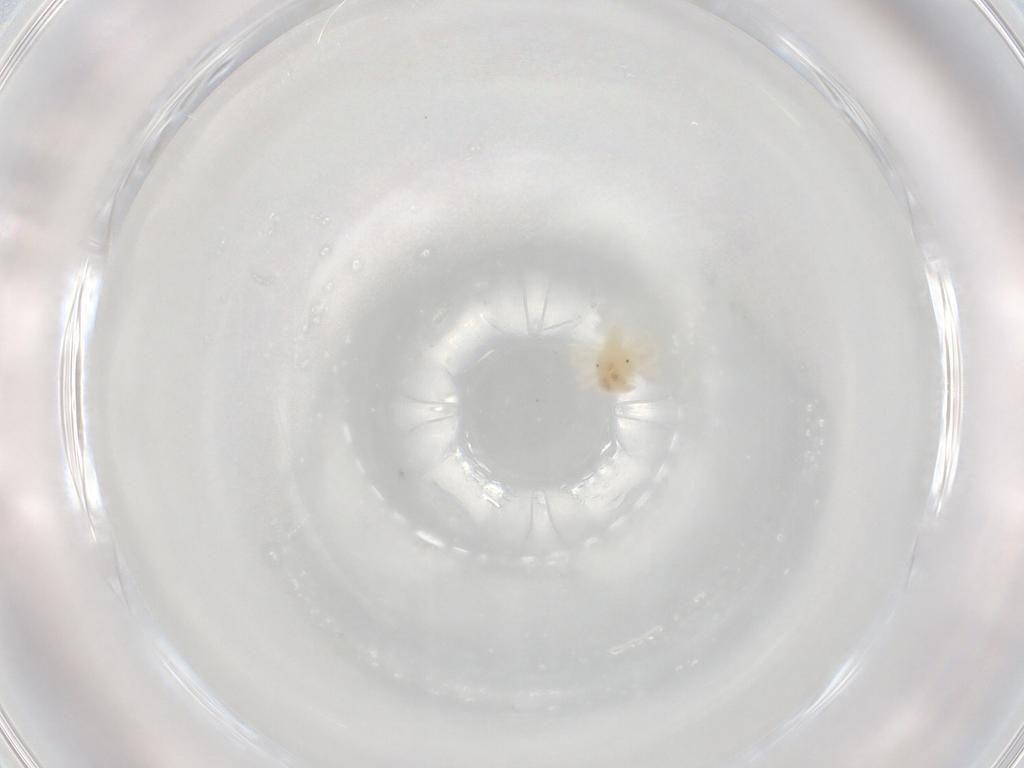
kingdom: Animalia
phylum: Arthropoda
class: Arachnida
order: Trombidiformes
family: Anystidae
